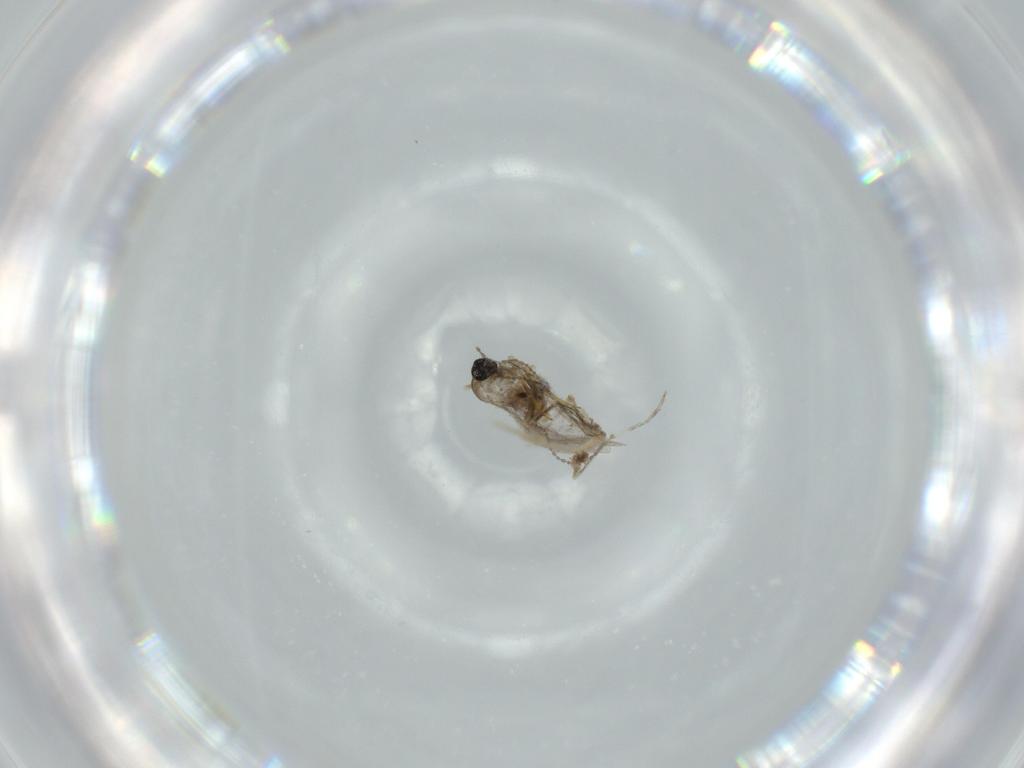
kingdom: Animalia
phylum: Arthropoda
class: Insecta
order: Diptera
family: Cecidomyiidae
